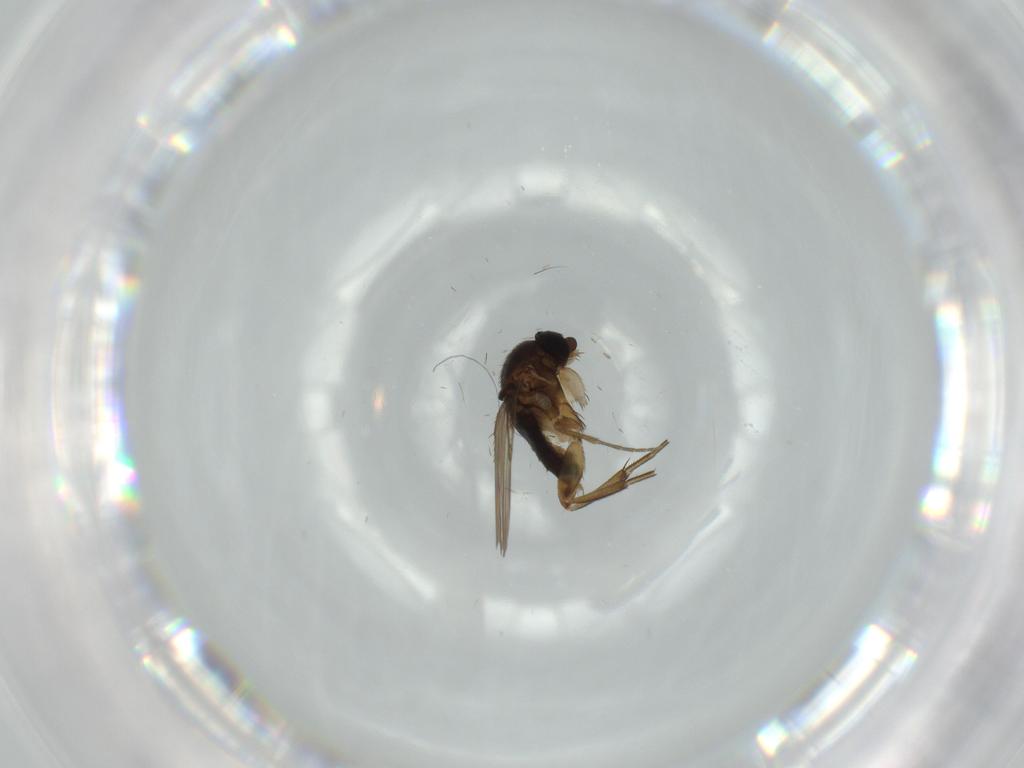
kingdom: Animalia
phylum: Arthropoda
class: Insecta
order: Diptera
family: Phoridae
